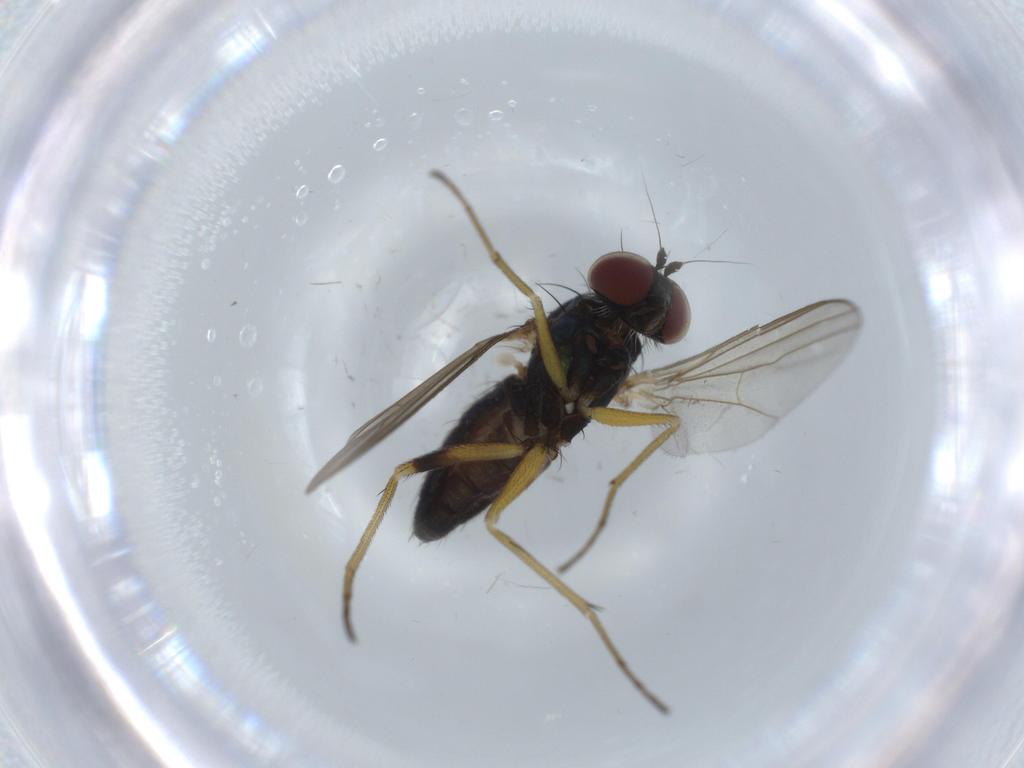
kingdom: Animalia
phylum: Arthropoda
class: Insecta
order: Diptera
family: Dolichopodidae
